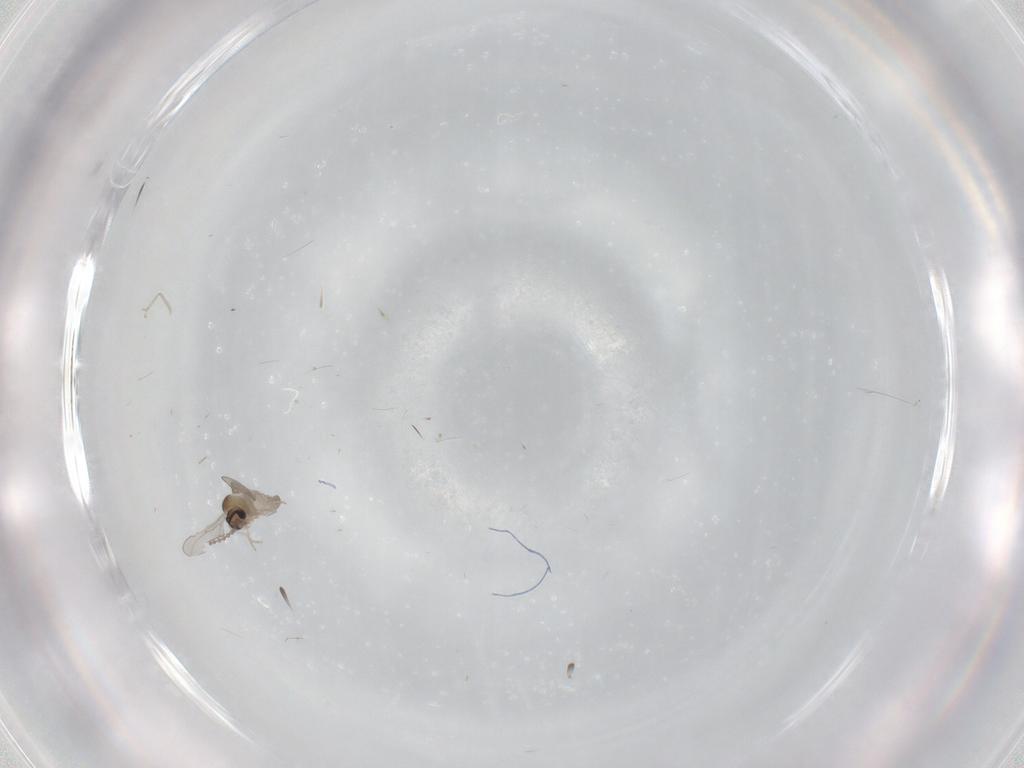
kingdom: Animalia
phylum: Arthropoda
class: Insecta
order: Diptera
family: Cecidomyiidae
